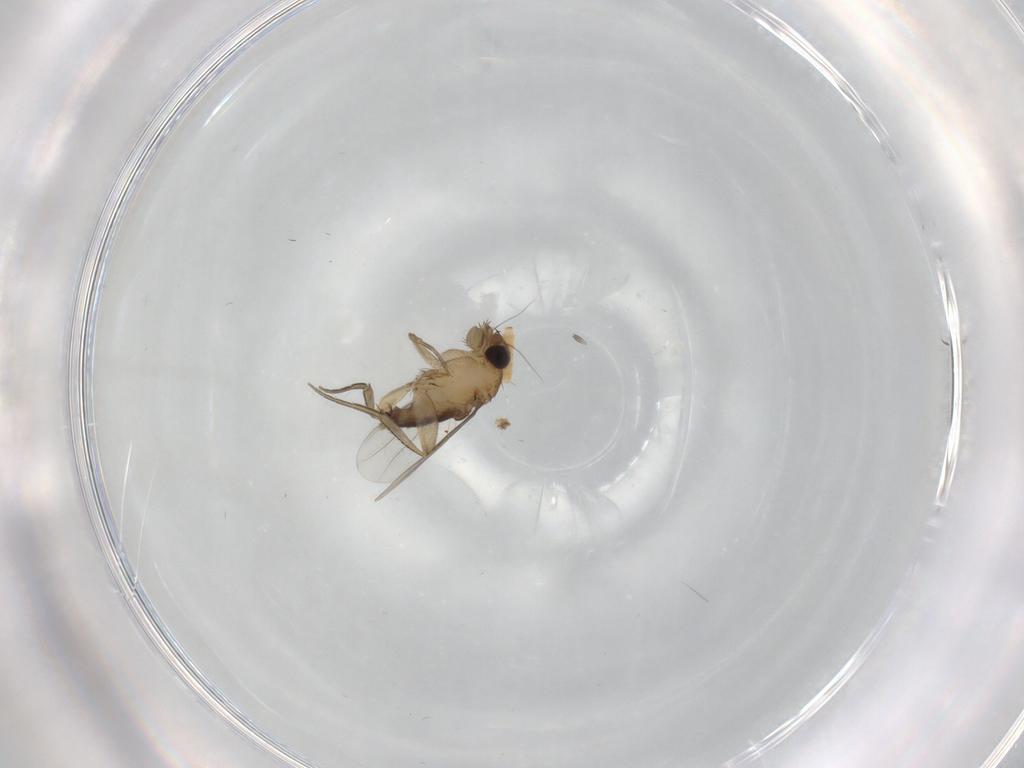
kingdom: Animalia
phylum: Arthropoda
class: Insecta
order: Diptera
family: Phoridae
